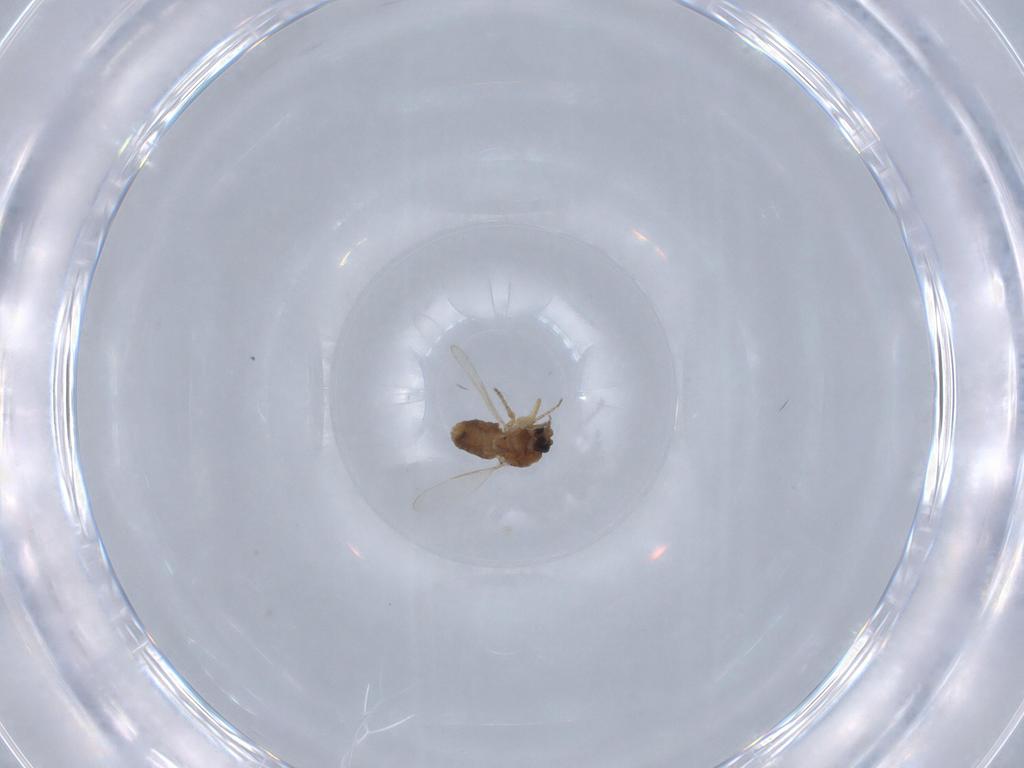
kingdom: Animalia
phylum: Arthropoda
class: Insecta
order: Diptera
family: Ceratopogonidae
